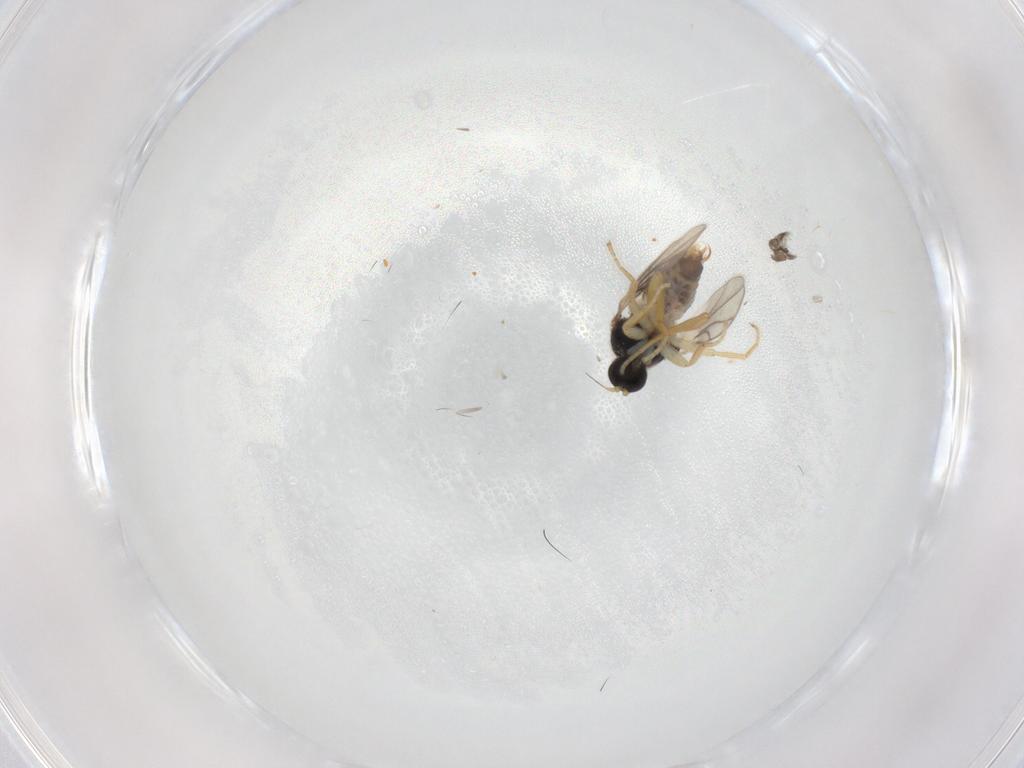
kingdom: Animalia
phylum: Arthropoda
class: Insecta
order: Diptera
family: Hybotidae
